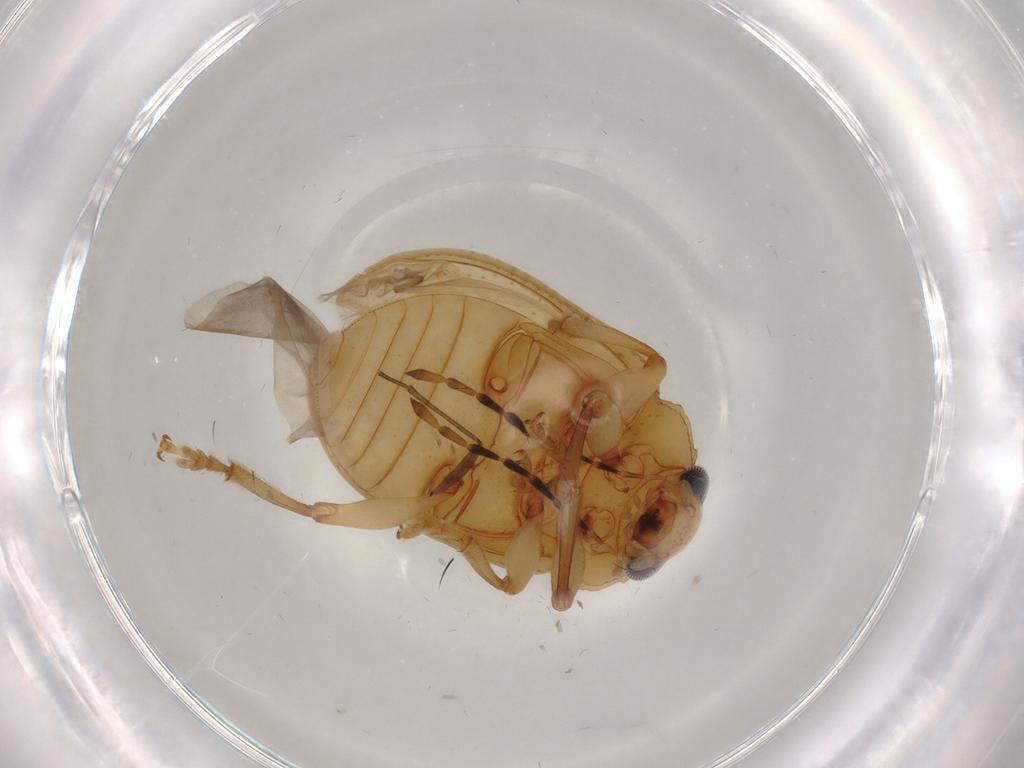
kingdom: Animalia
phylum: Arthropoda
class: Insecta
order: Coleoptera
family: Chrysomelidae
